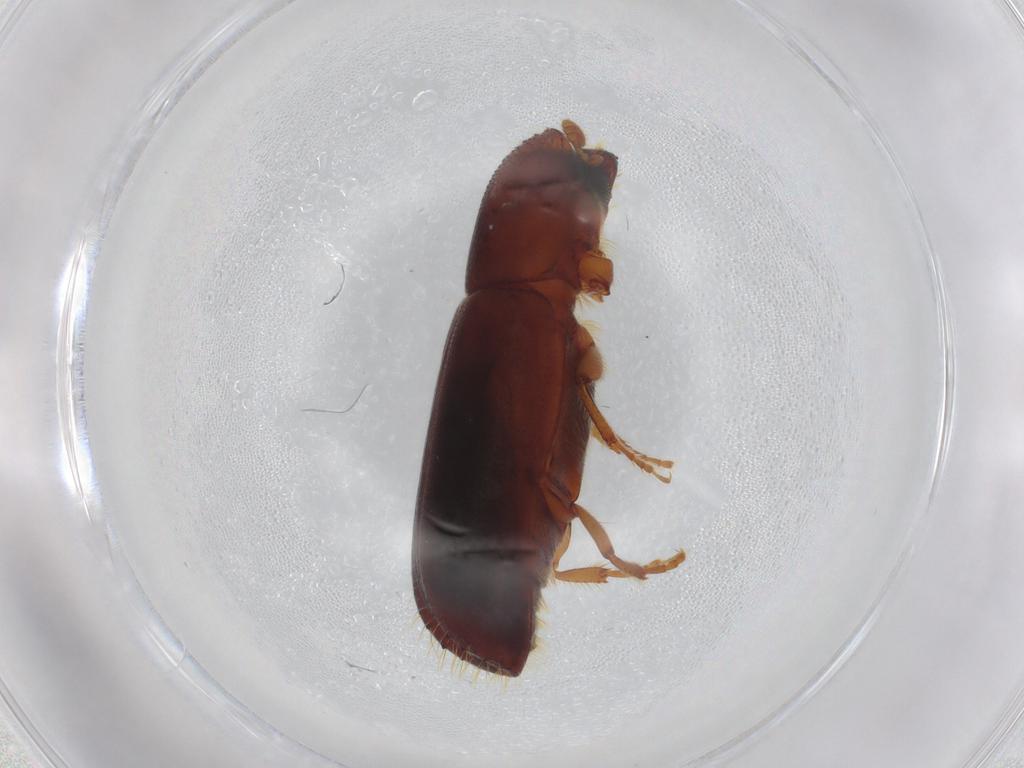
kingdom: Animalia
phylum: Arthropoda
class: Insecta
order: Coleoptera
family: Curculionidae
